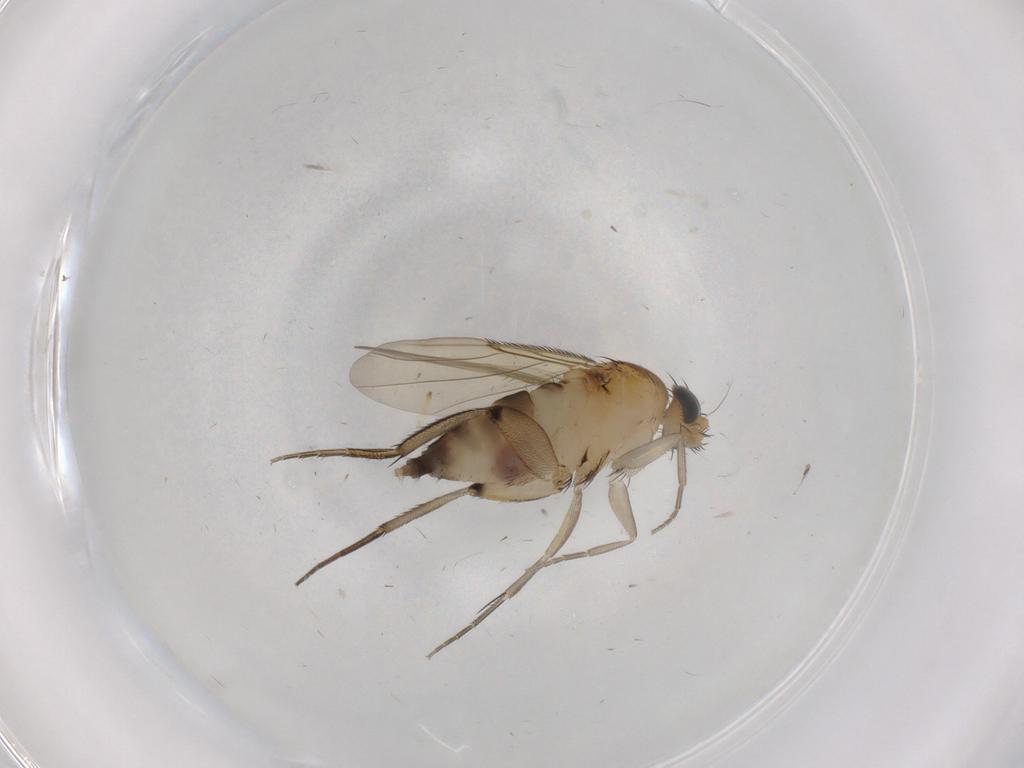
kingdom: Animalia
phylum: Arthropoda
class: Insecta
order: Diptera
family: Phoridae
